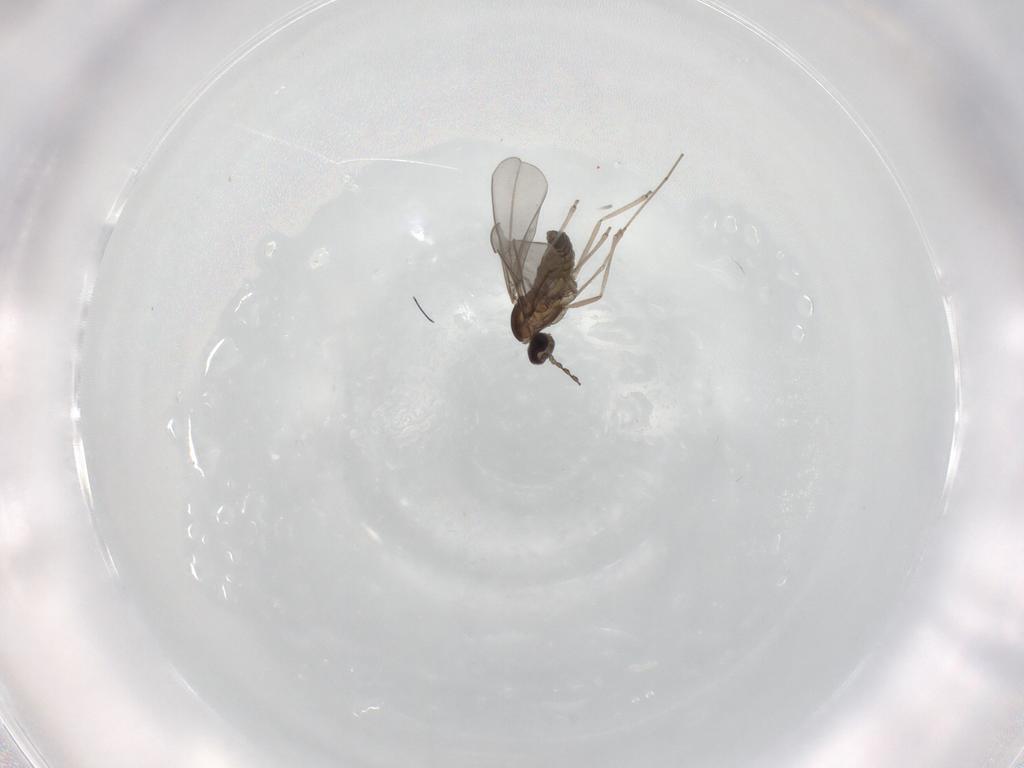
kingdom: Animalia
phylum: Arthropoda
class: Insecta
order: Diptera
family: Cecidomyiidae
